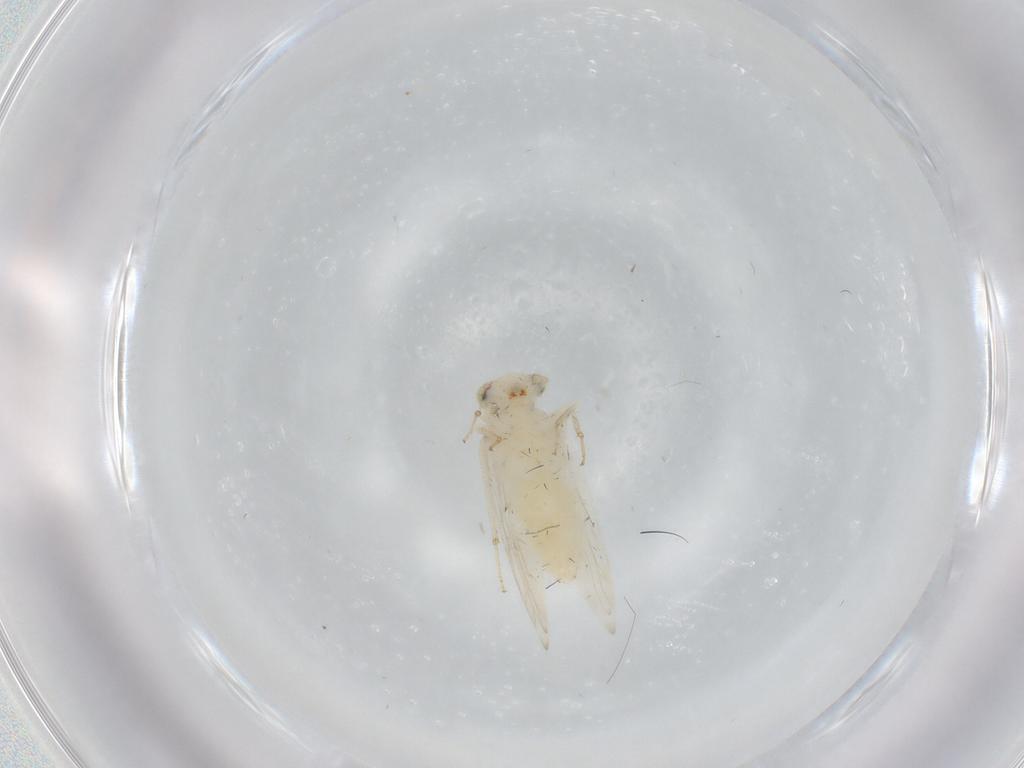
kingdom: Animalia
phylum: Arthropoda
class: Insecta
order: Psocodea
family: Lepidopsocidae
